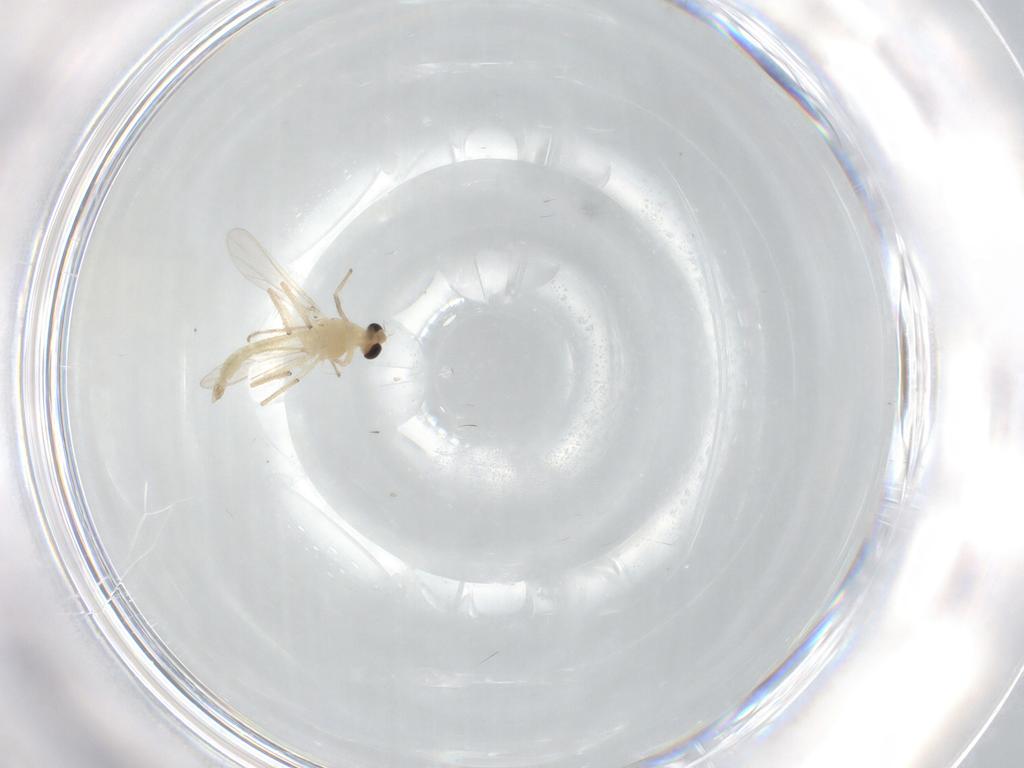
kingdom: Animalia
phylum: Arthropoda
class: Insecta
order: Diptera
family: Chironomidae
